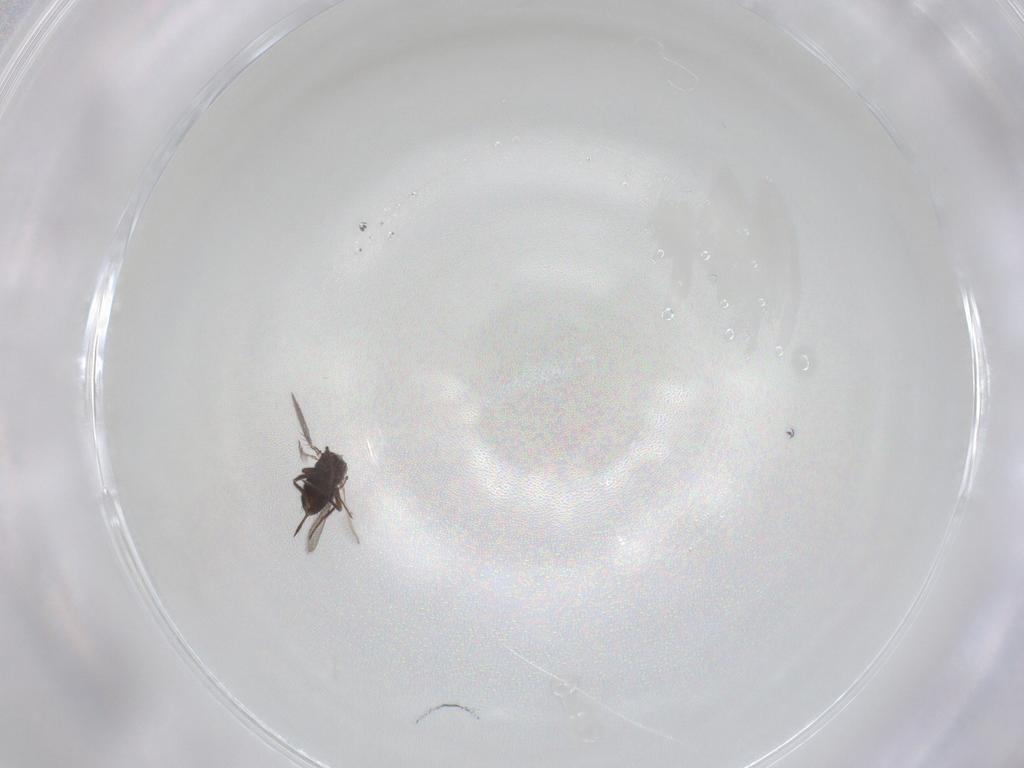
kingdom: Animalia
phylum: Arthropoda
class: Insecta
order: Hymenoptera
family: Trichogrammatidae
